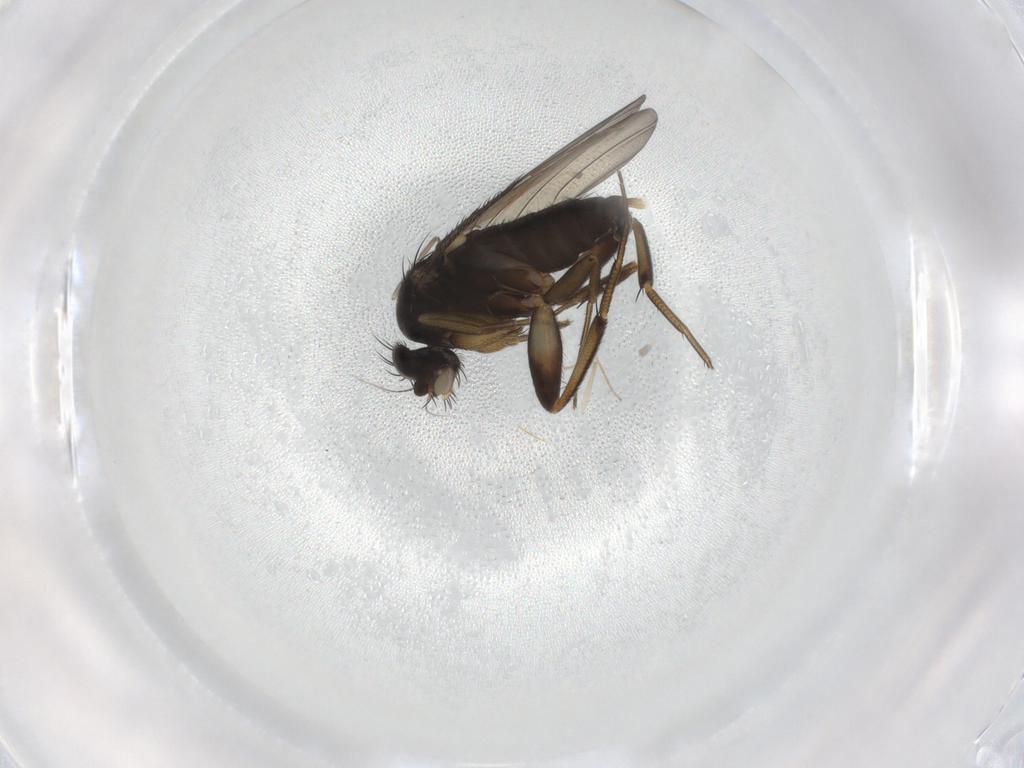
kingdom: Animalia
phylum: Arthropoda
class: Insecta
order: Diptera
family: Phoridae
